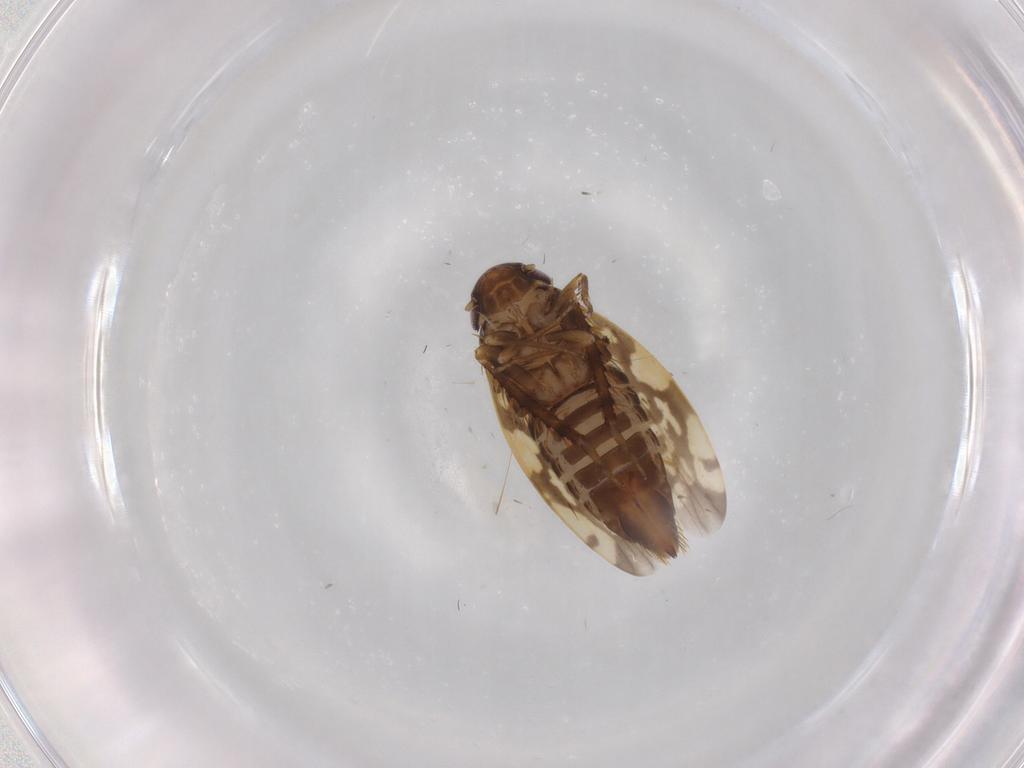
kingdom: Animalia
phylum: Arthropoda
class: Insecta
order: Hemiptera
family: Cicadellidae
